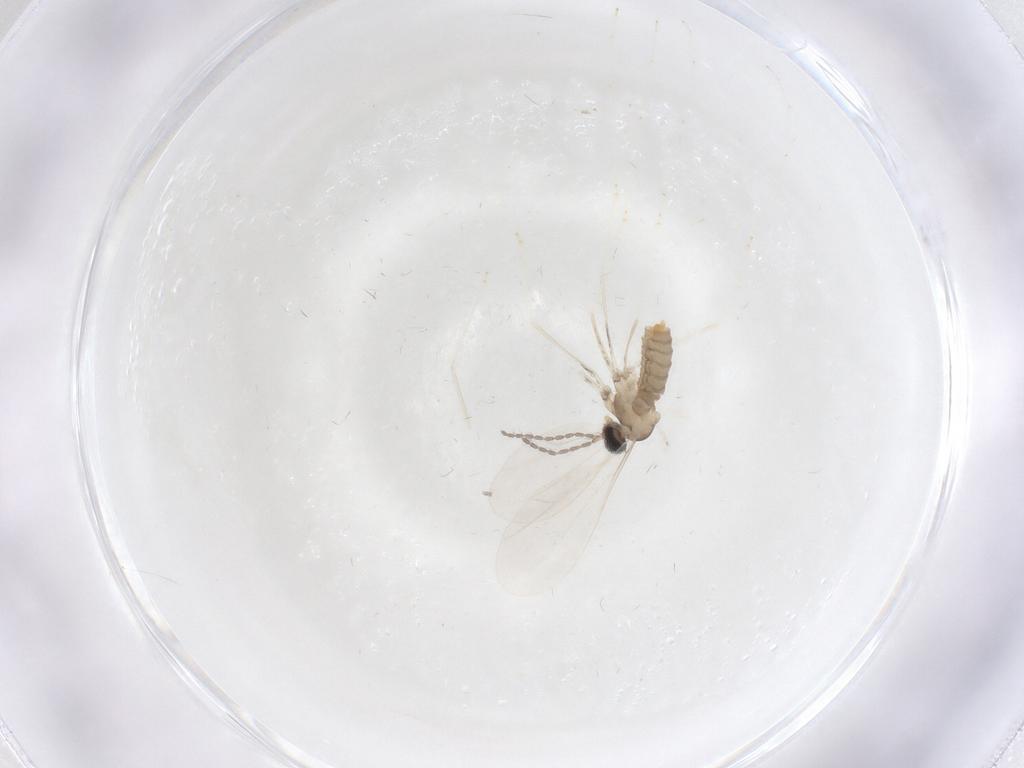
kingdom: Animalia
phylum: Arthropoda
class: Insecta
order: Diptera
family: Cecidomyiidae
